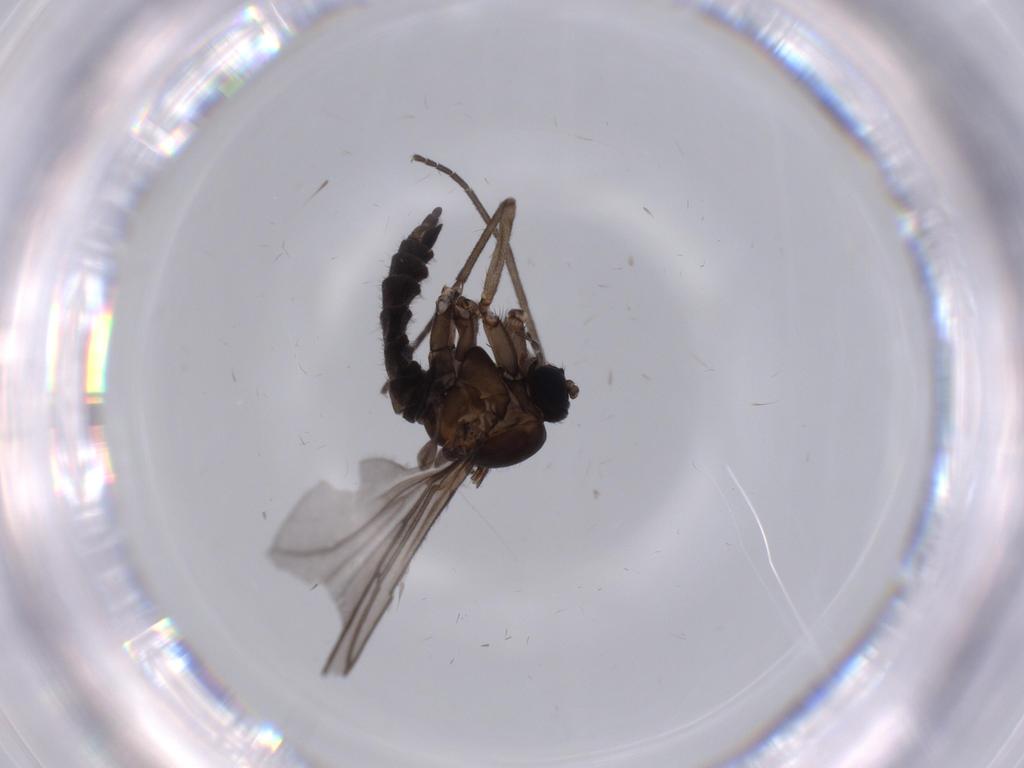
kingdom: Animalia
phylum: Arthropoda
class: Insecta
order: Diptera
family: Sciaridae
